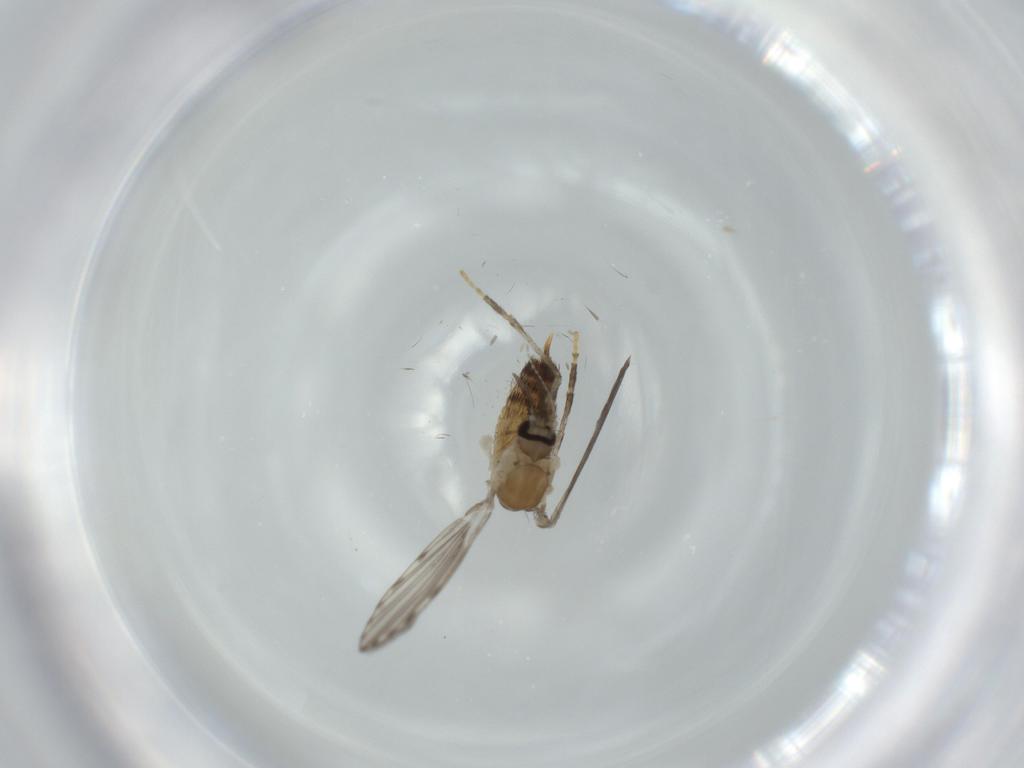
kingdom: Animalia
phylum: Arthropoda
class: Insecta
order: Diptera
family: Psychodidae
